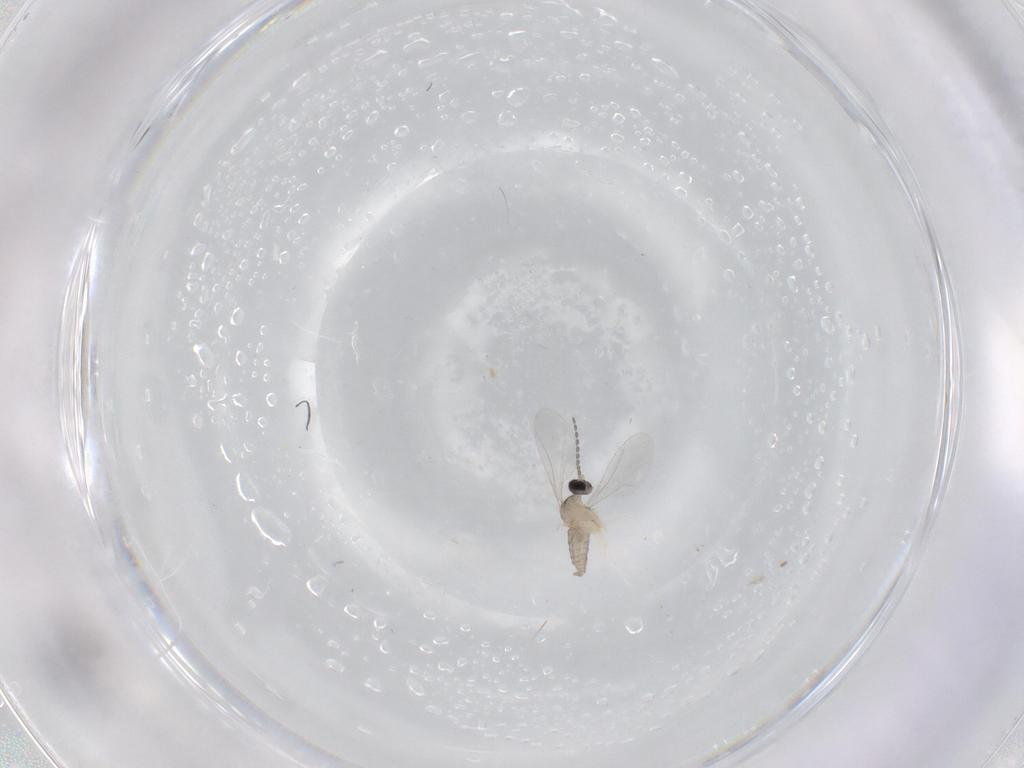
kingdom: Animalia
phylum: Arthropoda
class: Insecta
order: Diptera
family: Cecidomyiidae
